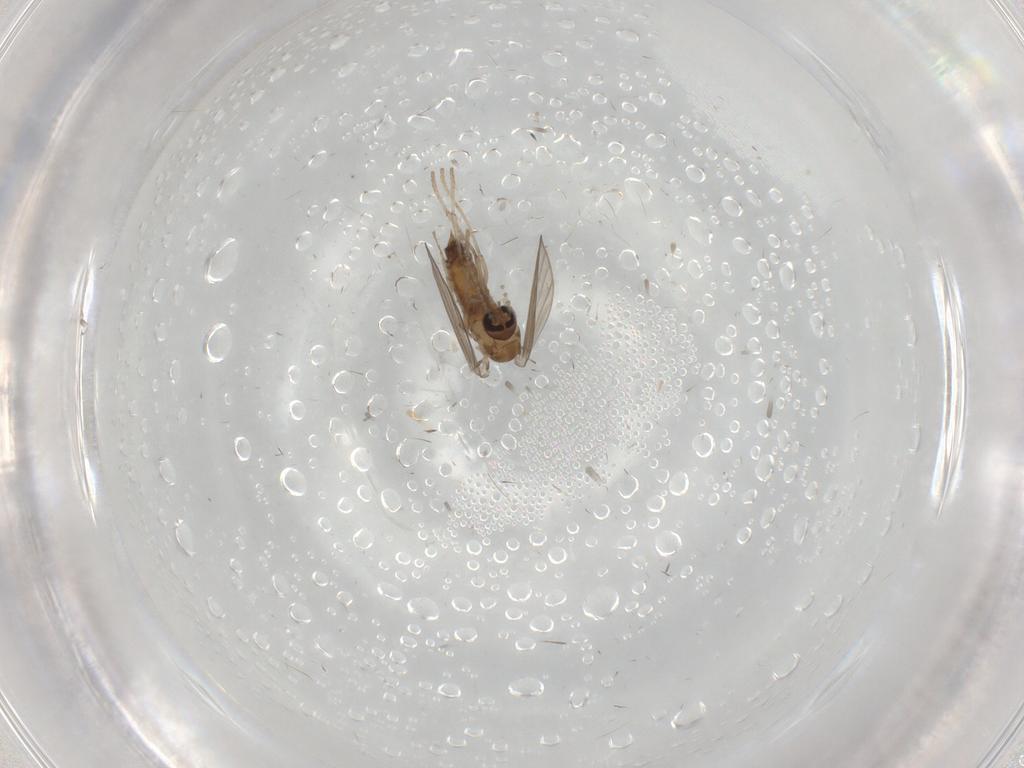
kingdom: Animalia
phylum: Arthropoda
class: Insecta
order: Diptera
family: Psychodidae
